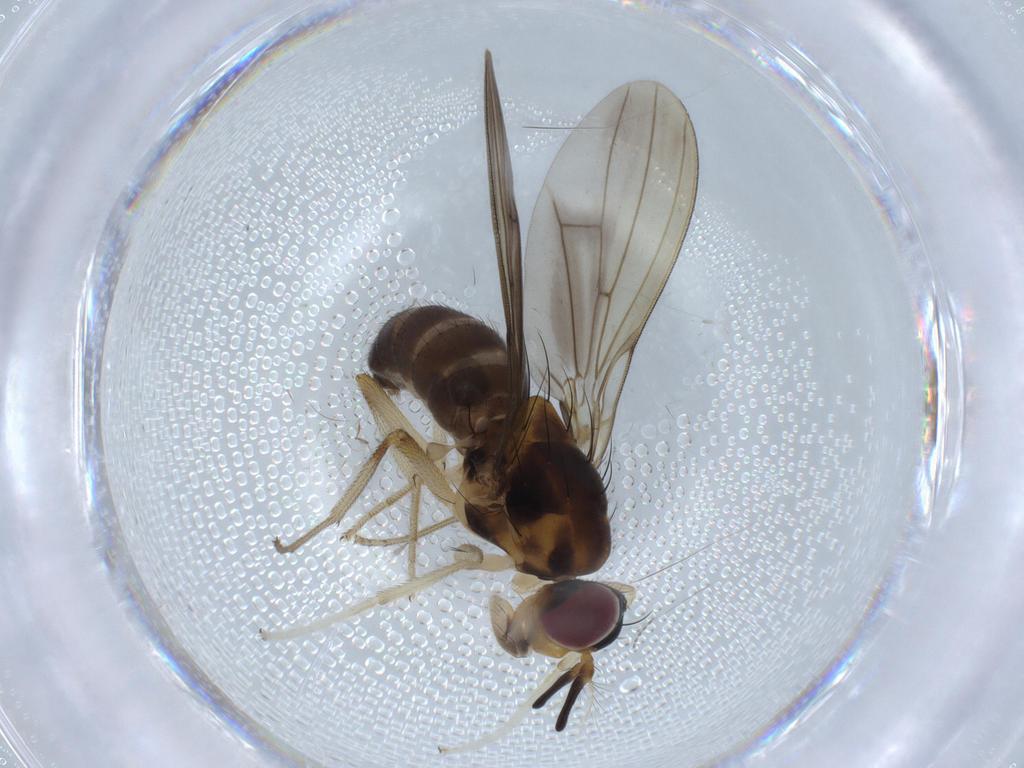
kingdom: Animalia
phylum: Arthropoda
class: Insecta
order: Diptera
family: Lauxaniidae
